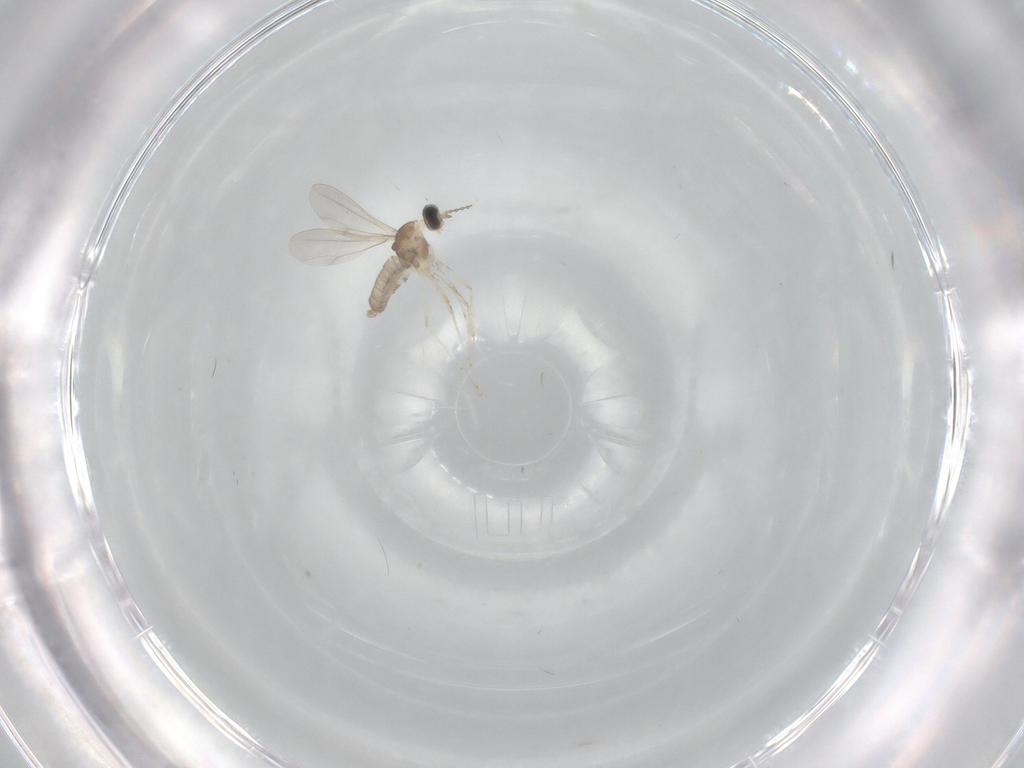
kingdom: Animalia
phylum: Arthropoda
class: Insecta
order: Diptera
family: Cecidomyiidae
